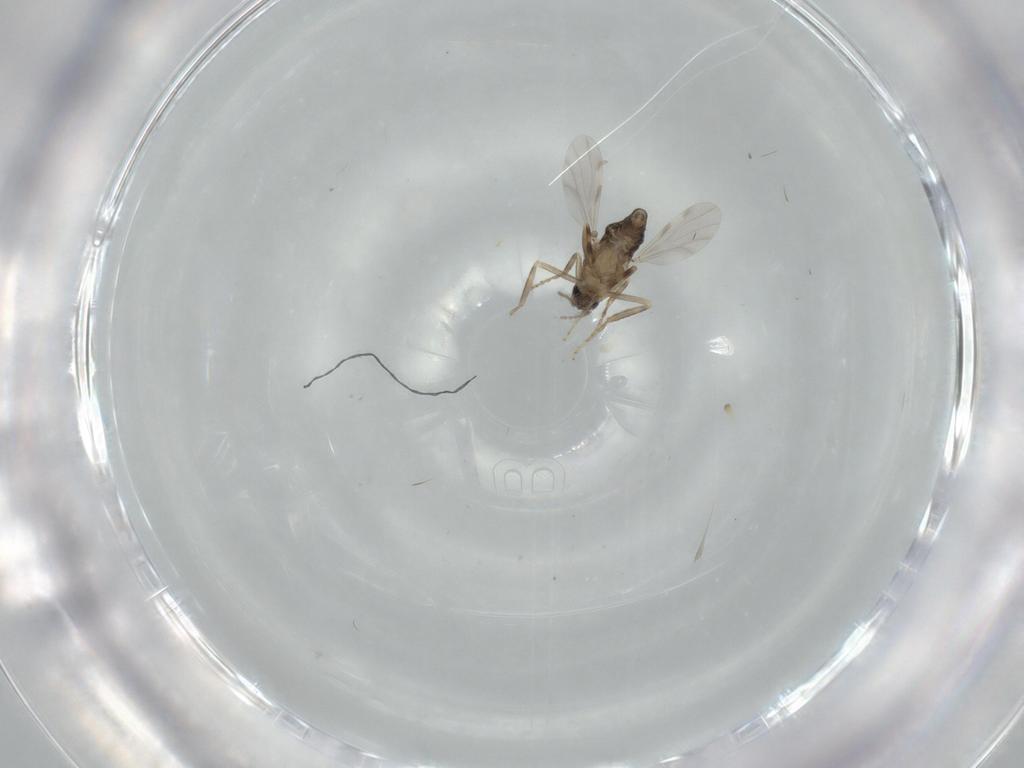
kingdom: Animalia
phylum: Arthropoda
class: Insecta
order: Diptera
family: Ceratopogonidae
